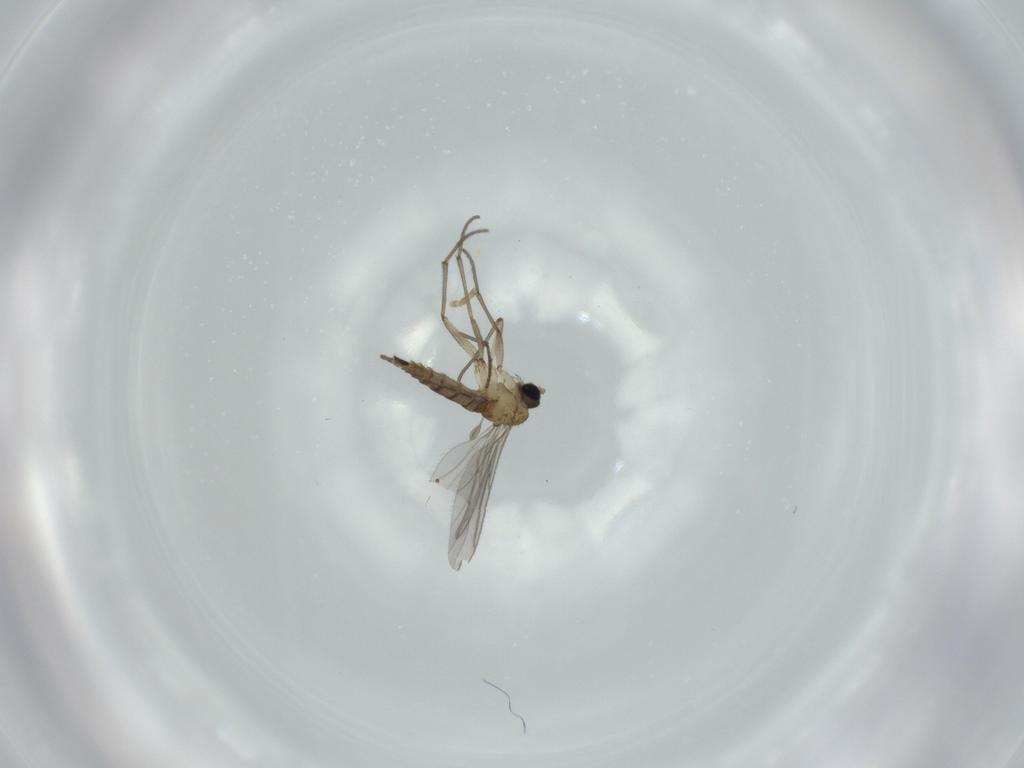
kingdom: Animalia
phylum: Arthropoda
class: Insecta
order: Diptera
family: Sciaridae
